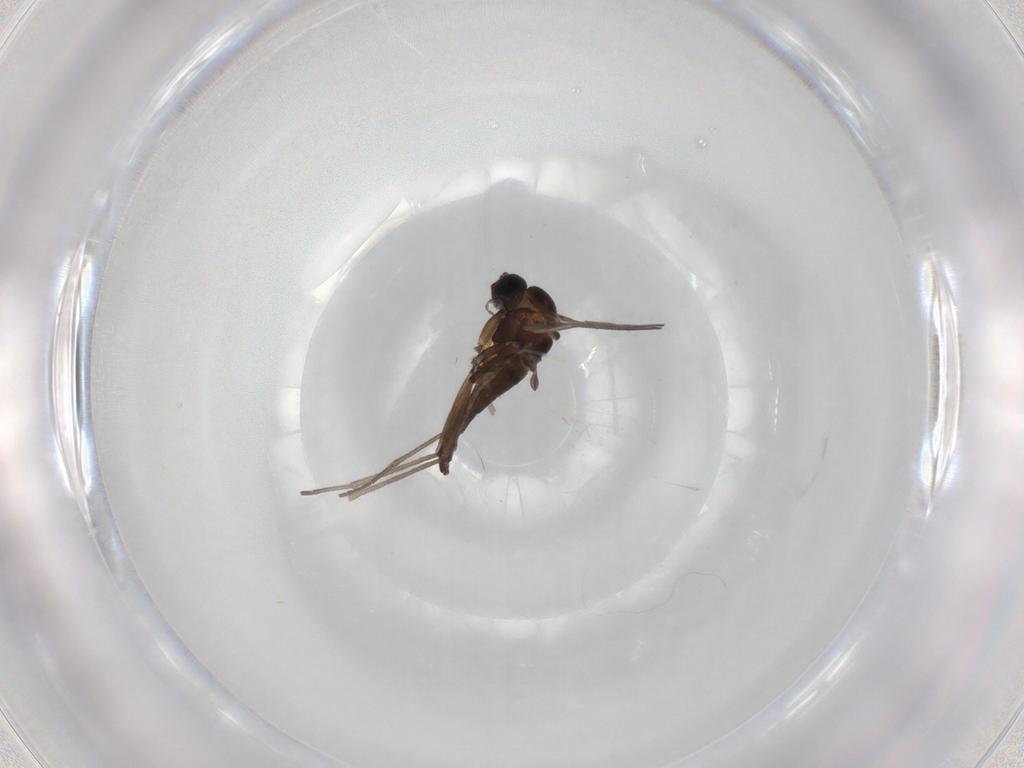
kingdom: Animalia
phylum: Arthropoda
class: Insecta
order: Diptera
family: Sciaridae
